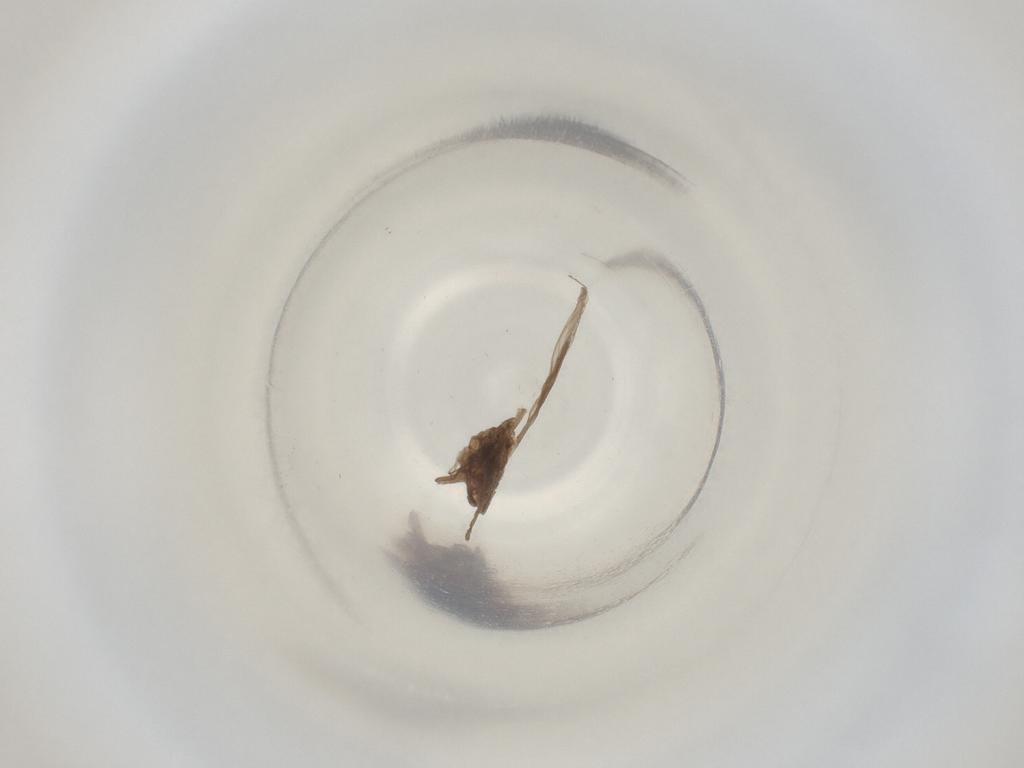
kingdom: Animalia
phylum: Arthropoda
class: Insecta
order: Diptera
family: Cecidomyiidae
